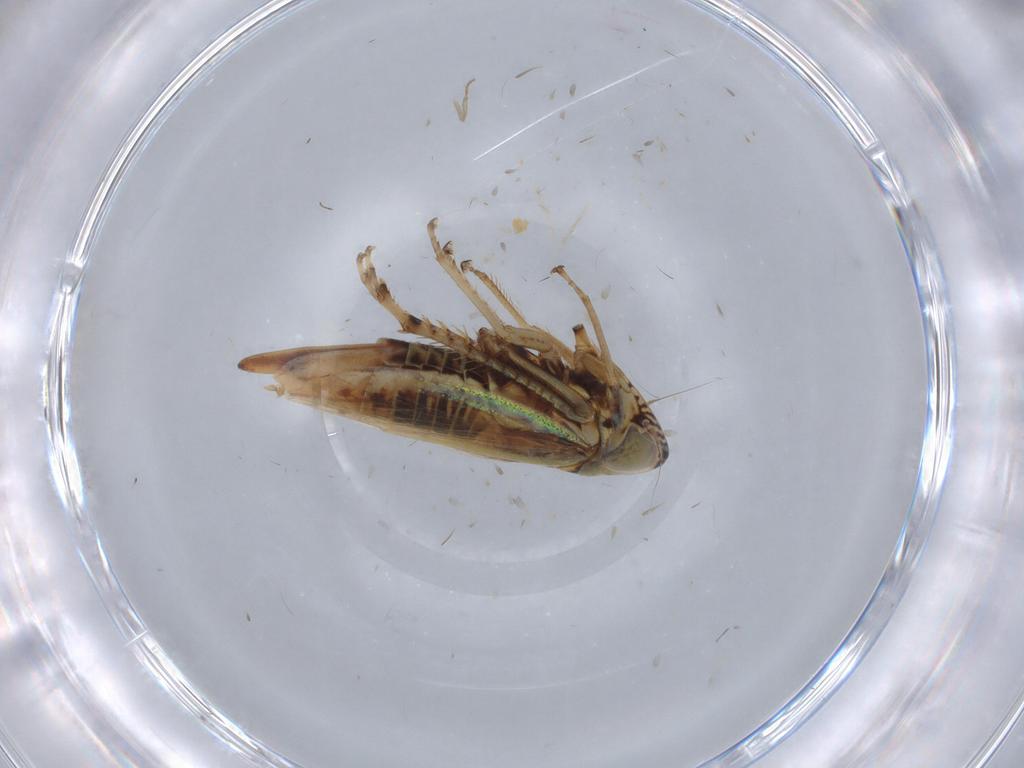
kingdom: Animalia
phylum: Arthropoda
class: Insecta
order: Hemiptera
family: Cicadellidae
